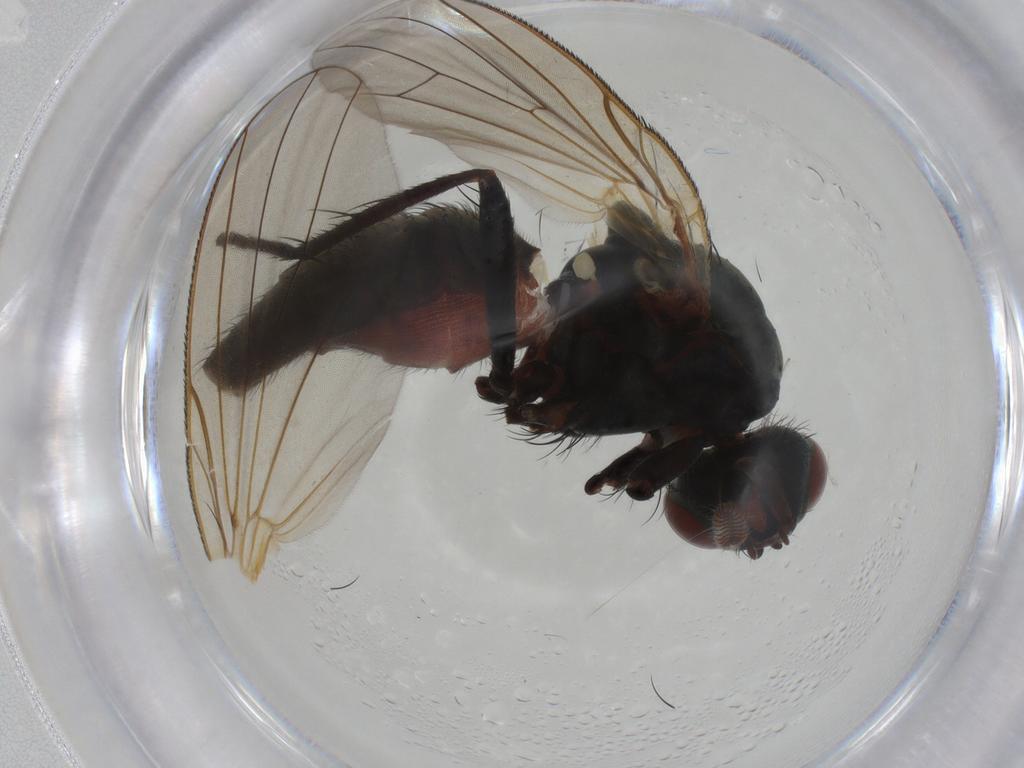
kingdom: Animalia
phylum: Arthropoda
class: Insecta
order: Diptera
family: Anthomyiidae
